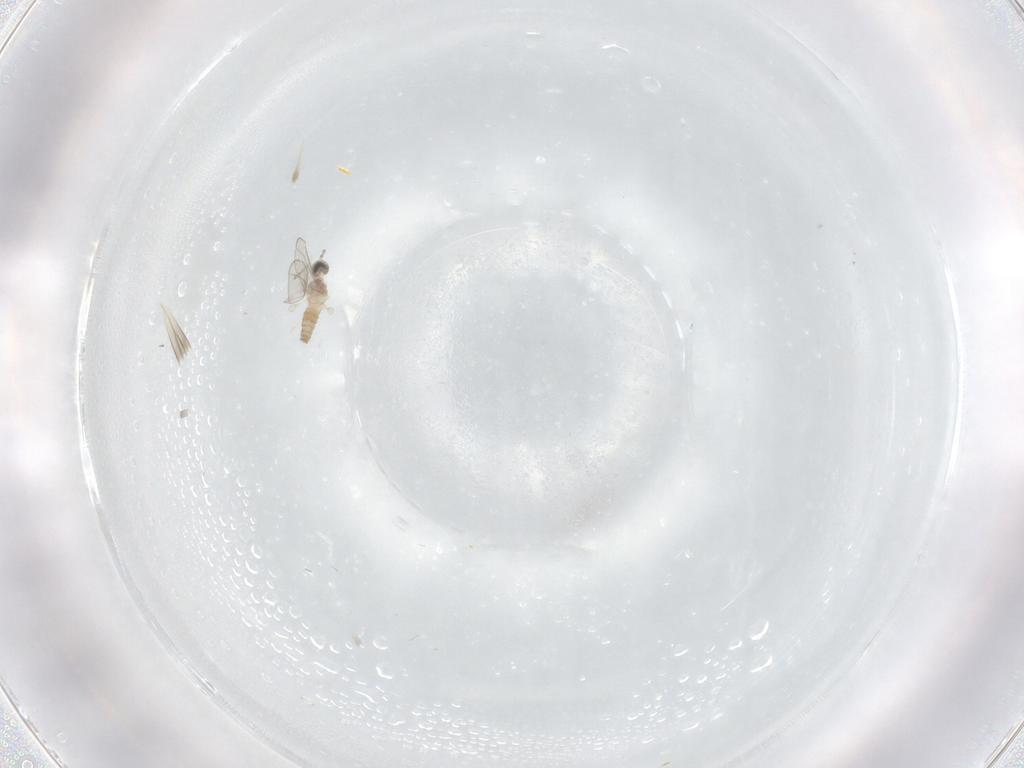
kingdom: Animalia
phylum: Arthropoda
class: Insecta
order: Diptera
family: Cecidomyiidae
